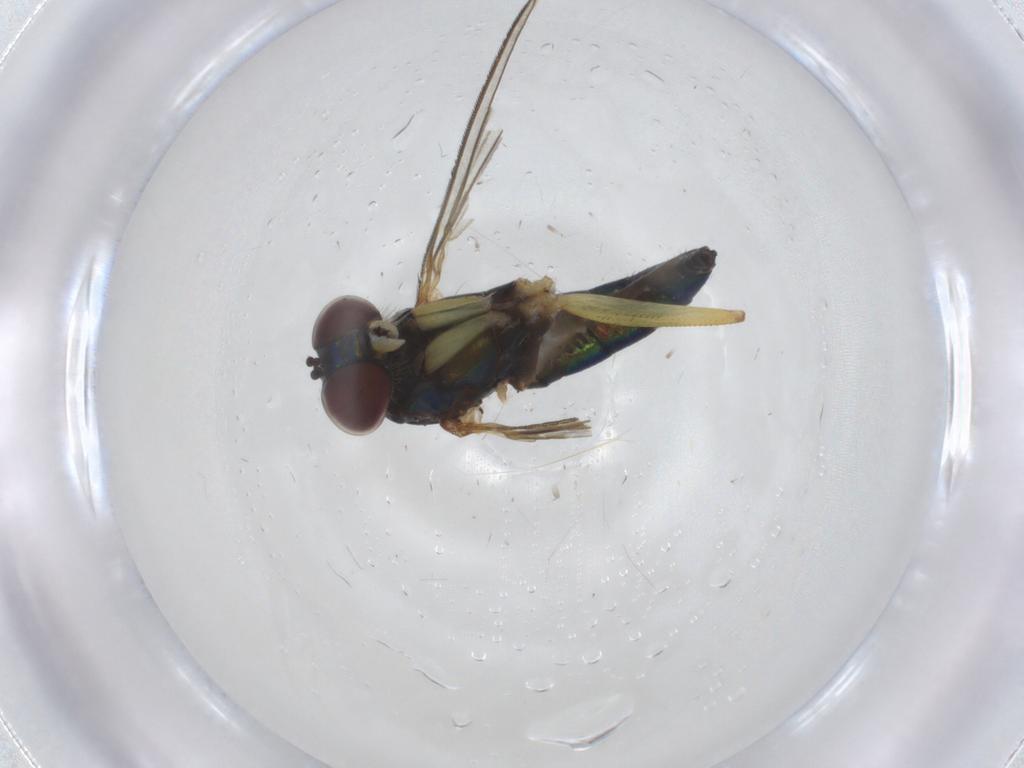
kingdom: Animalia
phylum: Arthropoda
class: Insecta
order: Diptera
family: Dolichopodidae
